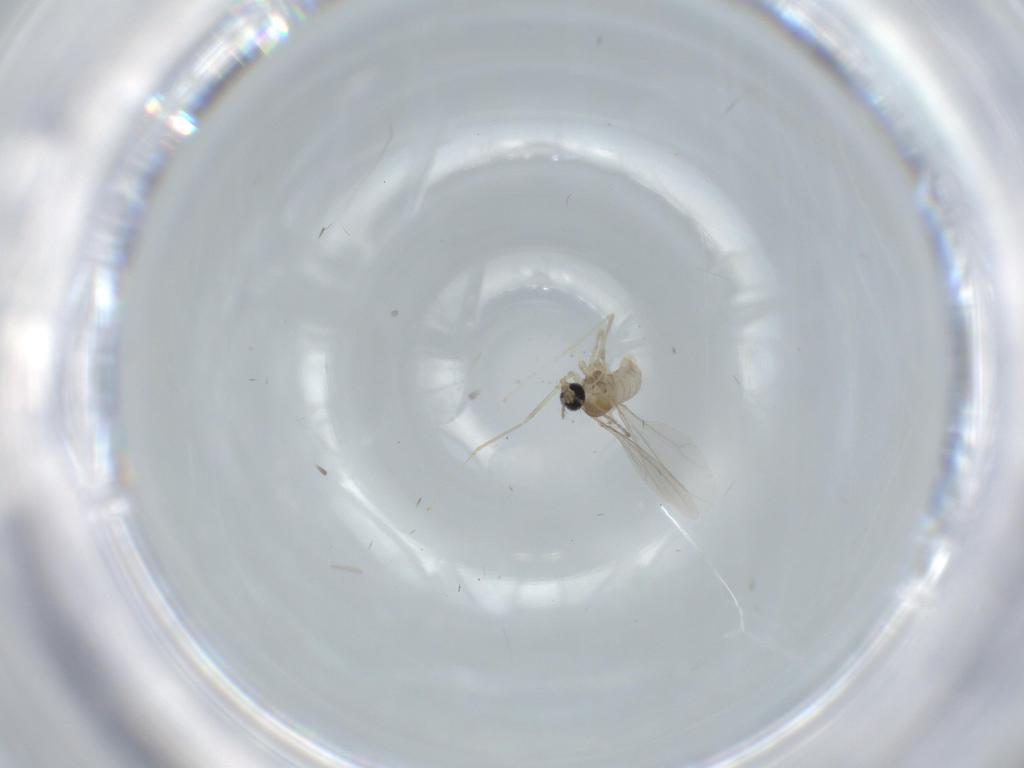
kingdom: Animalia
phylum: Arthropoda
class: Insecta
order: Diptera
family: Cecidomyiidae
